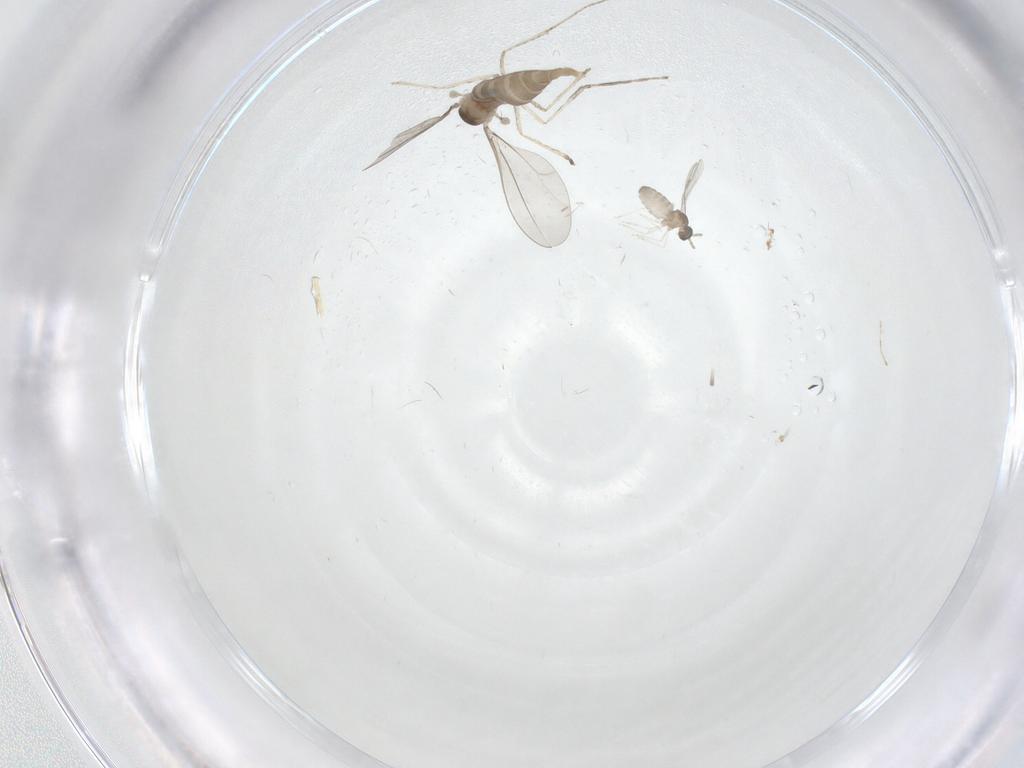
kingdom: Animalia
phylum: Arthropoda
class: Insecta
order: Diptera
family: Cecidomyiidae
